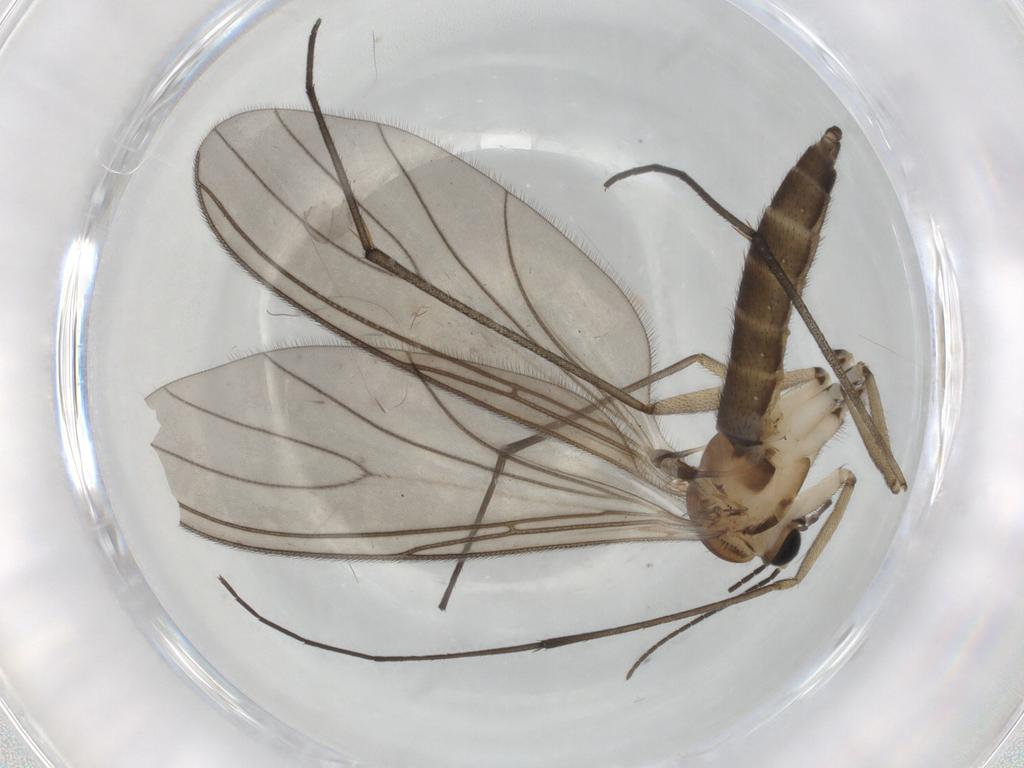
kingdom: Animalia
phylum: Arthropoda
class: Insecta
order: Diptera
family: Sciaridae
